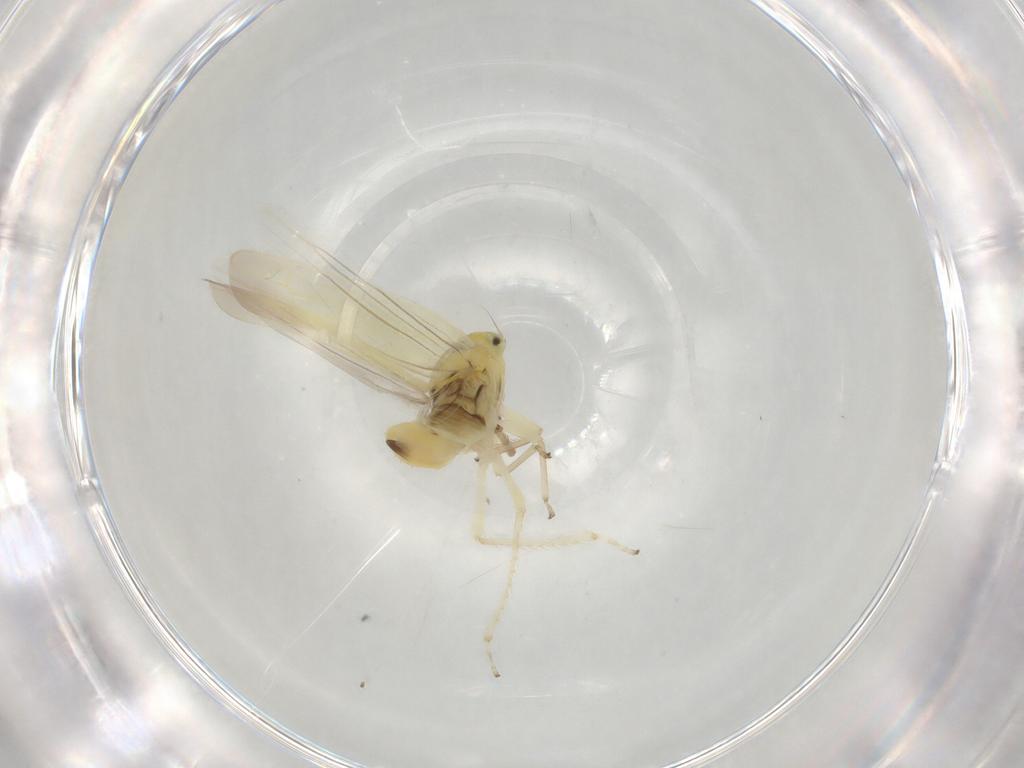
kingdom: Animalia
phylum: Arthropoda
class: Insecta
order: Hemiptera
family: Cicadellidae
